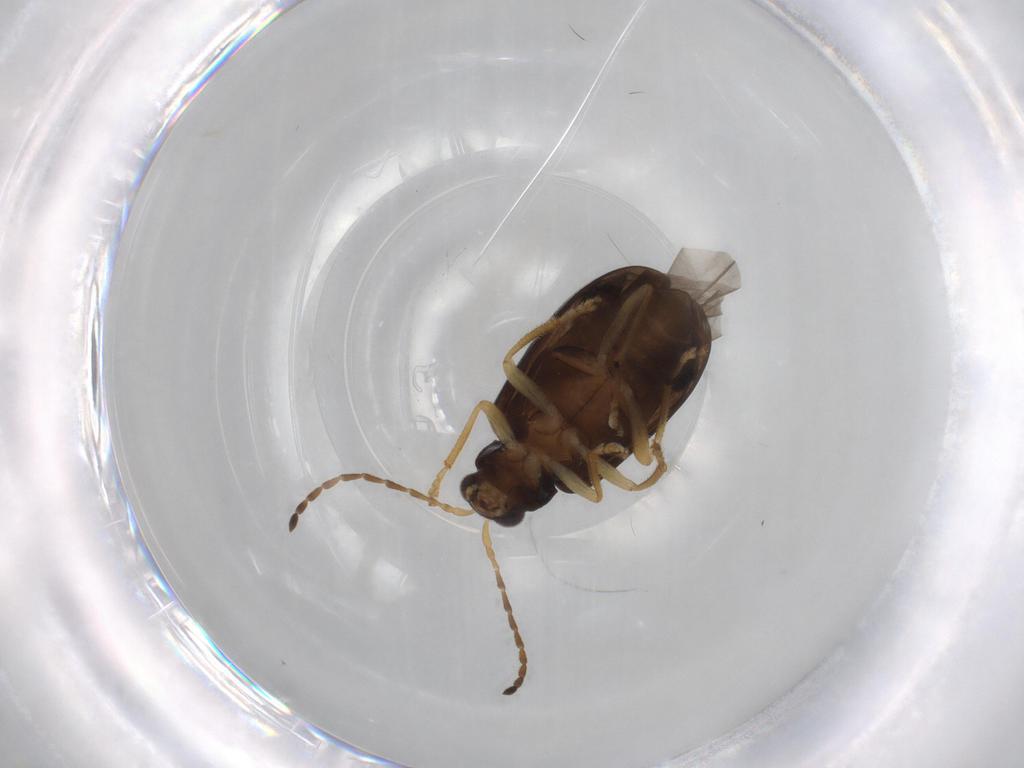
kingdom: Animalia
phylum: Arthropoda
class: Insecta
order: Coleoptera
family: Chrysomelidae
